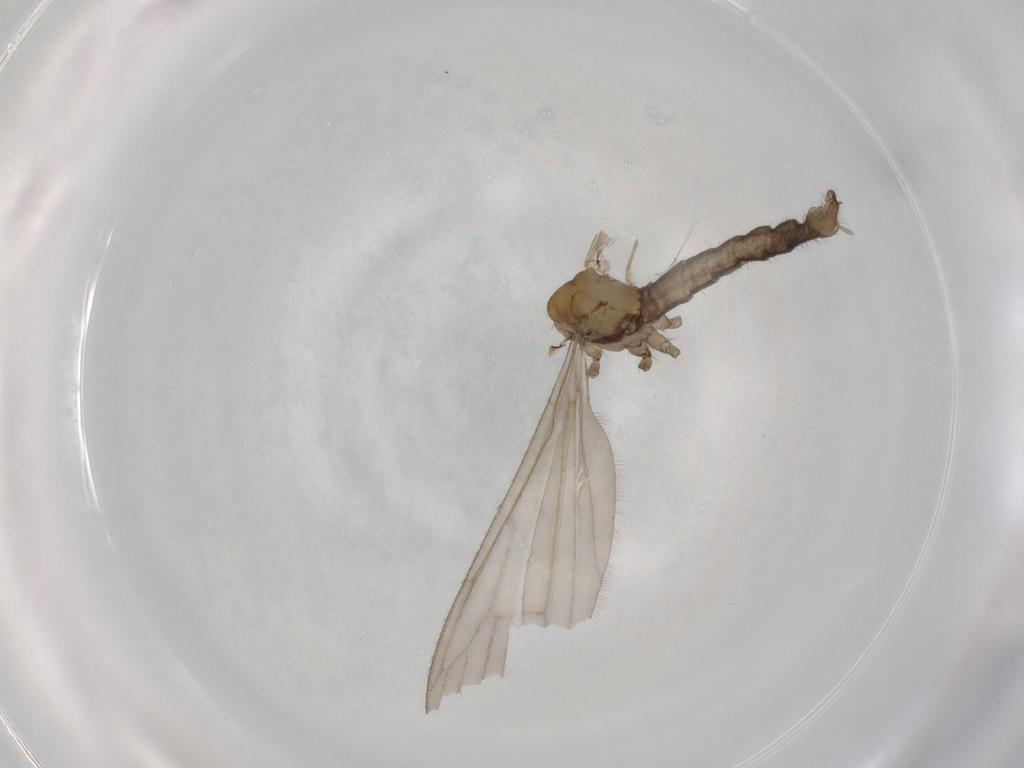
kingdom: Animalia
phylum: Arthropoda
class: Insecta
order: Diptera
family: Limoniidae
